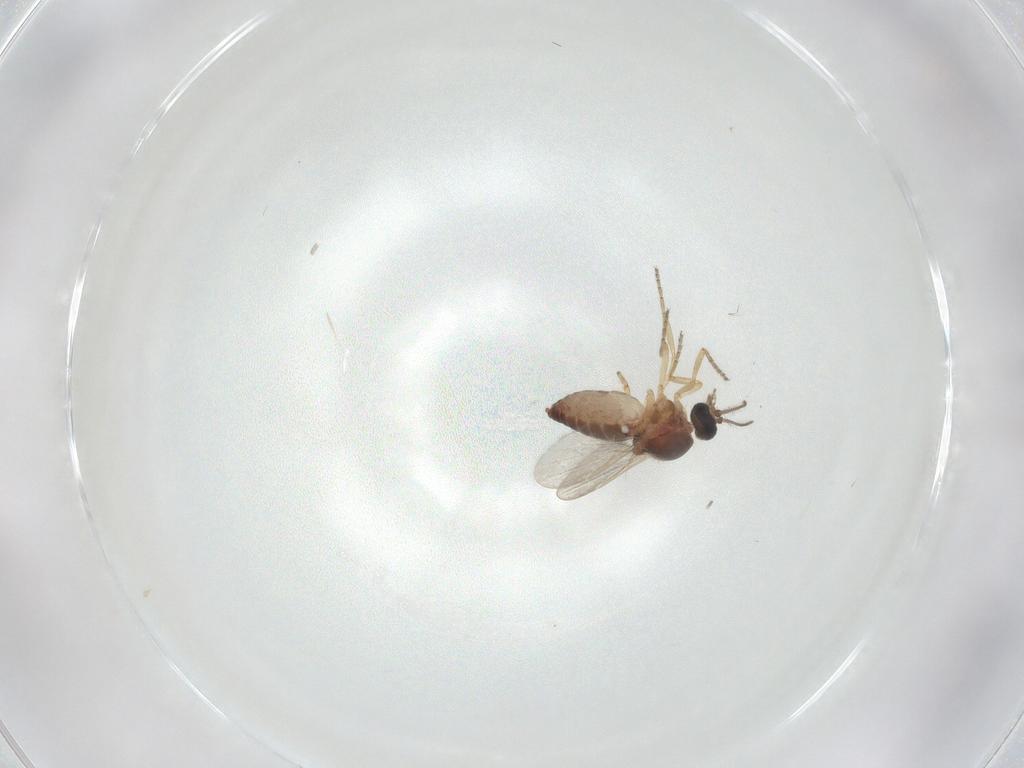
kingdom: Animalia
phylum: Arthropoda
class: Insecta
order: Diptera
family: Ceratopogonidae
